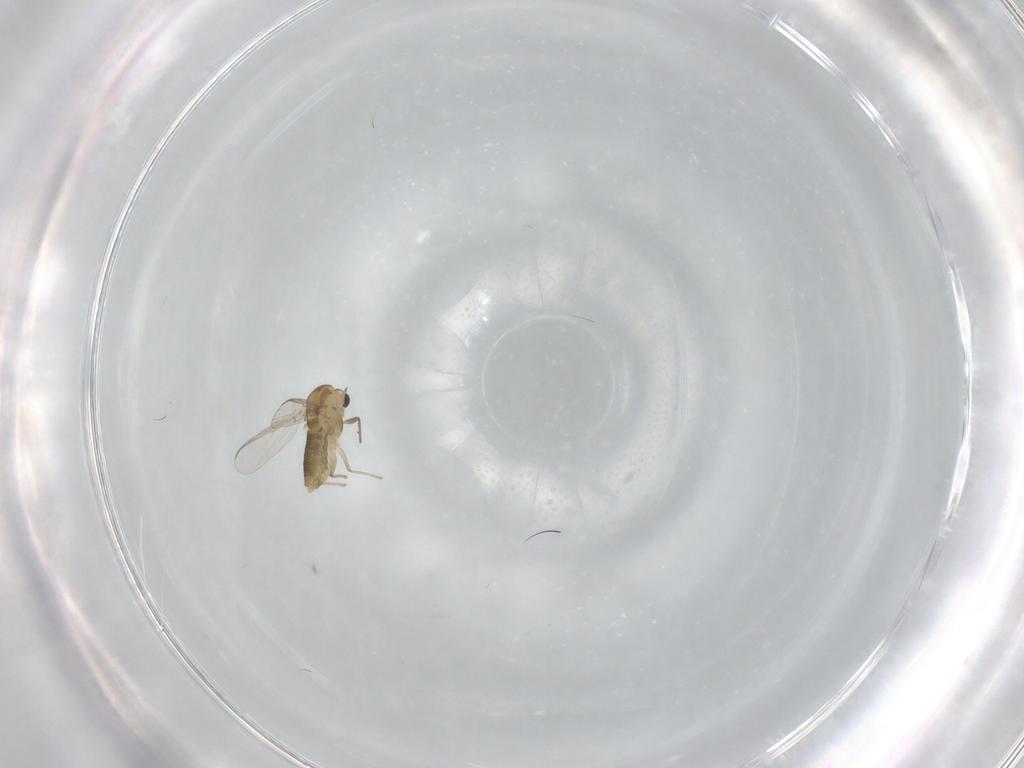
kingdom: Animalia
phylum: Arthropoda
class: Insecta
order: Diptera
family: Chironomidae
